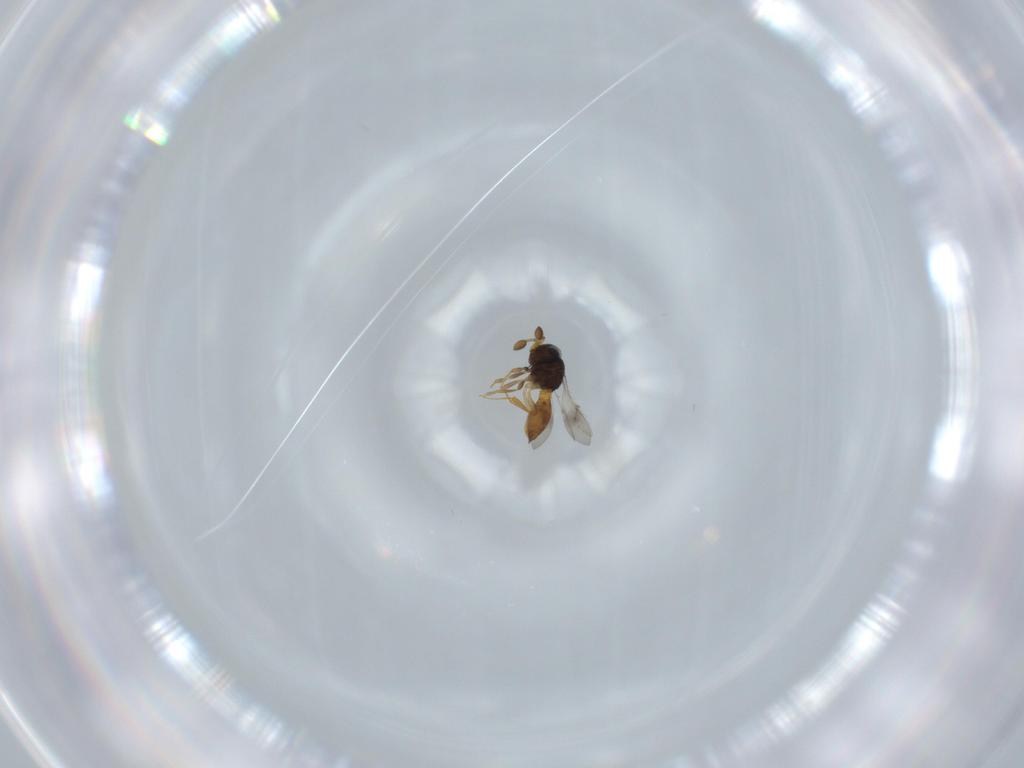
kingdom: Animalia
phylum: Arthropoda
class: Insecta
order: Hymenoptera
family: Scelionidae
